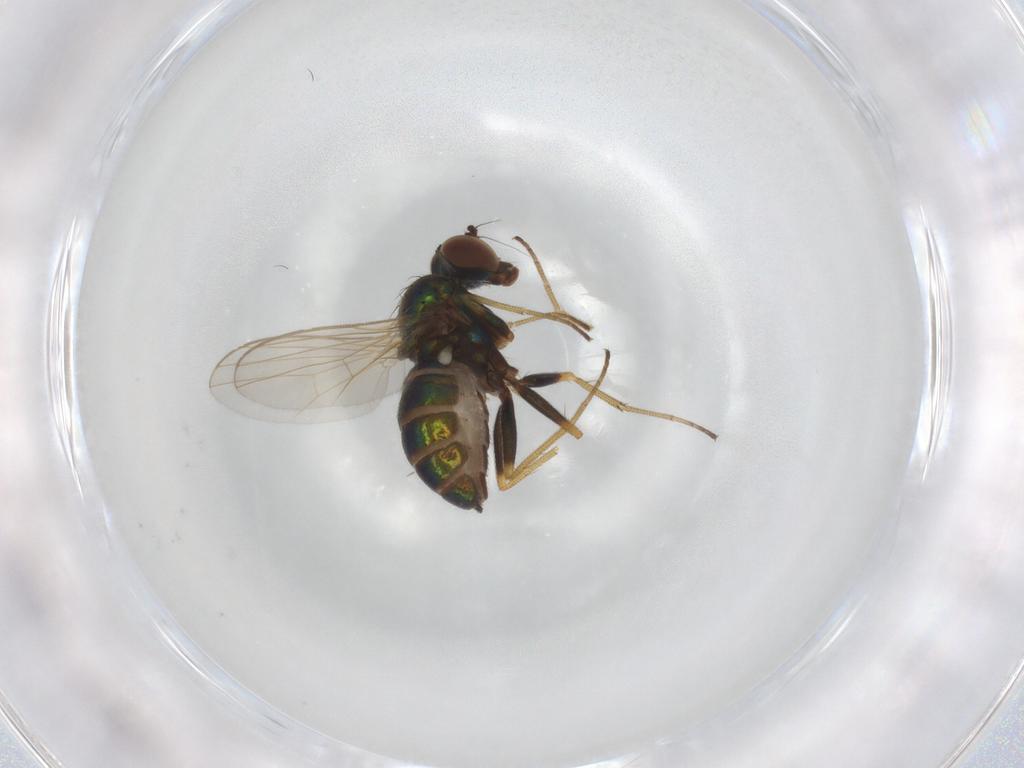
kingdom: Animalia
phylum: Arthropoda
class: Insecta
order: Diptera
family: Dolichopodidae
